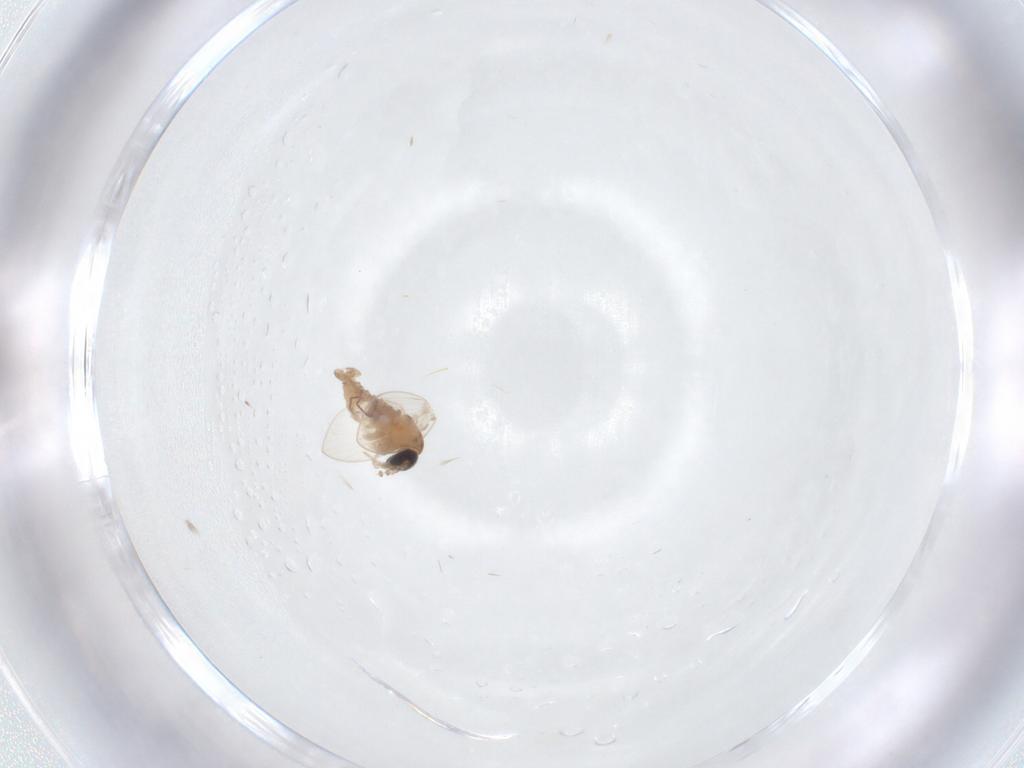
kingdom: Animalia
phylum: Arthropoda
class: Insecta
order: Diptera
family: Psychodidae
